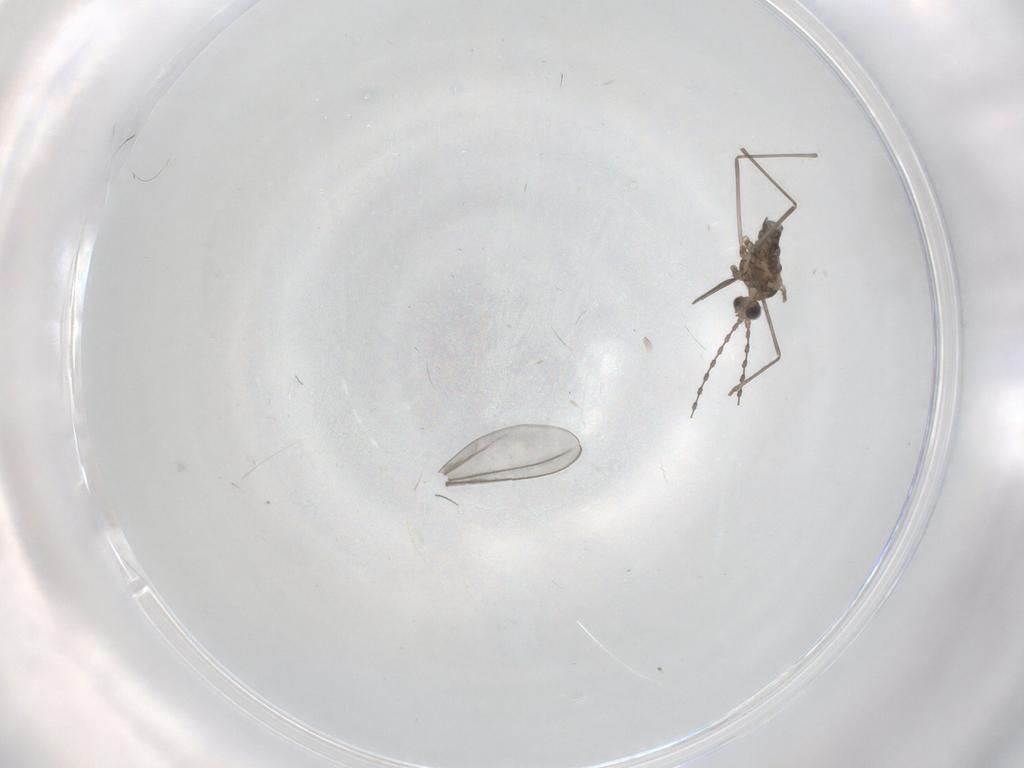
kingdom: Animalia
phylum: Arthropoda
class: Insecta
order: Diptera
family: Cecidomyiidae
